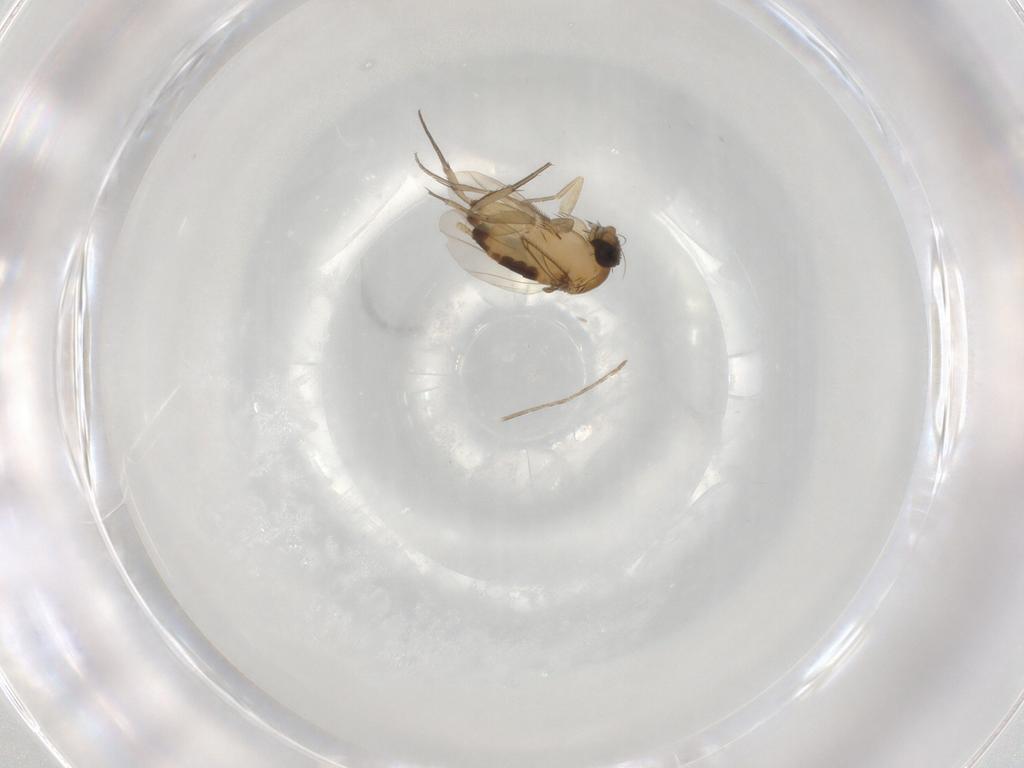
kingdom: Animalia
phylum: Arthropoda
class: Insecta
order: Diptera
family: Phoridae
